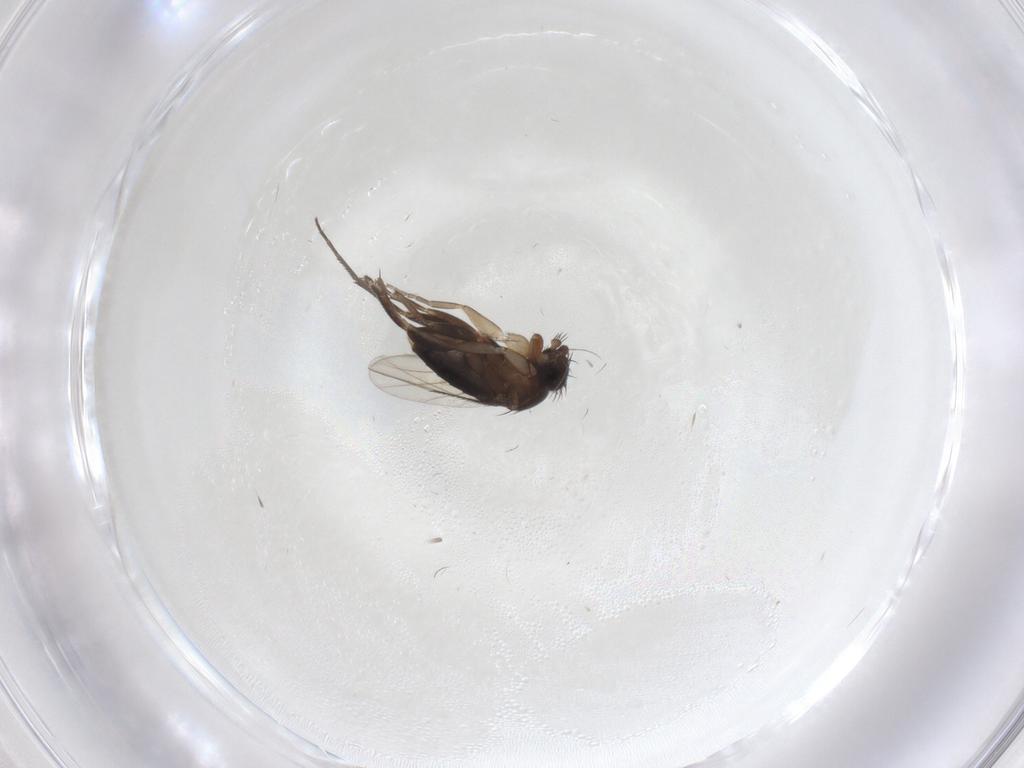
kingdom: Animalia
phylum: Arthropoda
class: Insecta
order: Diptera
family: Phoridae
